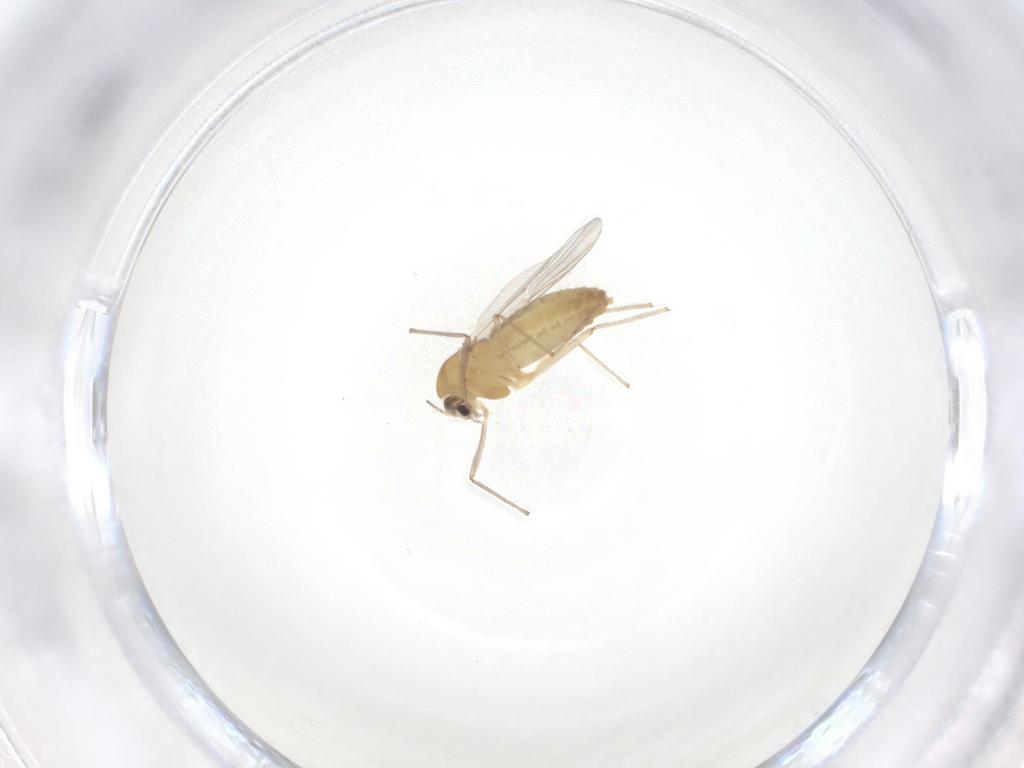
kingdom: Animalia
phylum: Arthropoda
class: Insecta
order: Diptera
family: Chironomidae
